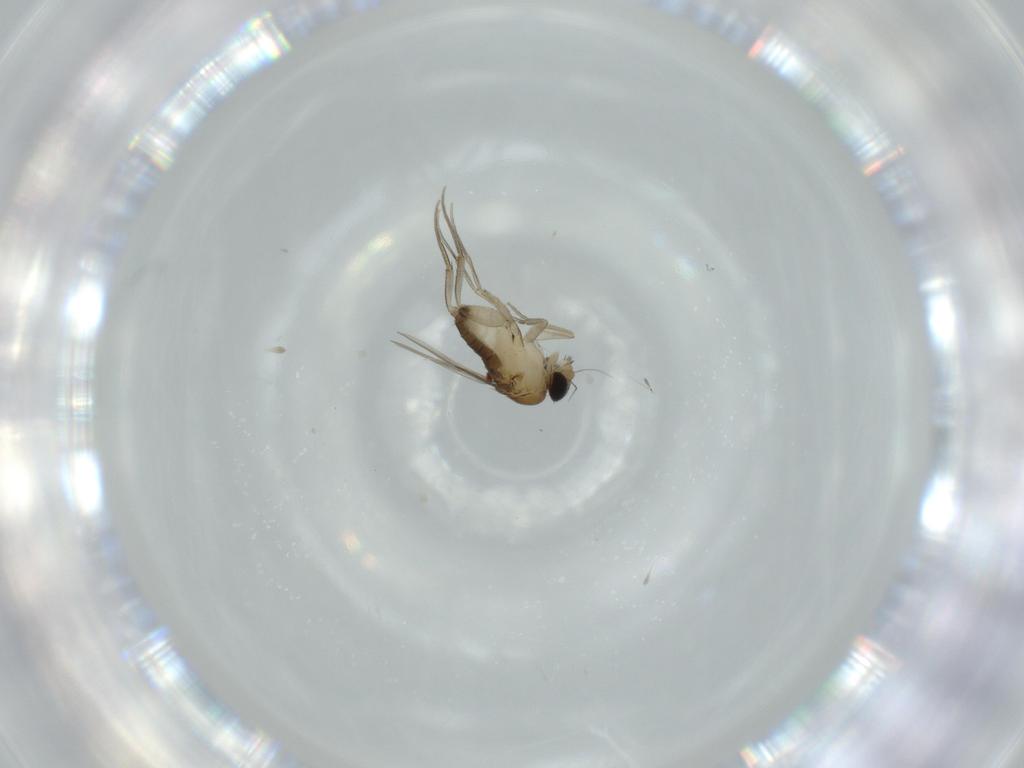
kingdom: Animalia
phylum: Arthropoda
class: Insecta
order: Diptera
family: Phoridae
